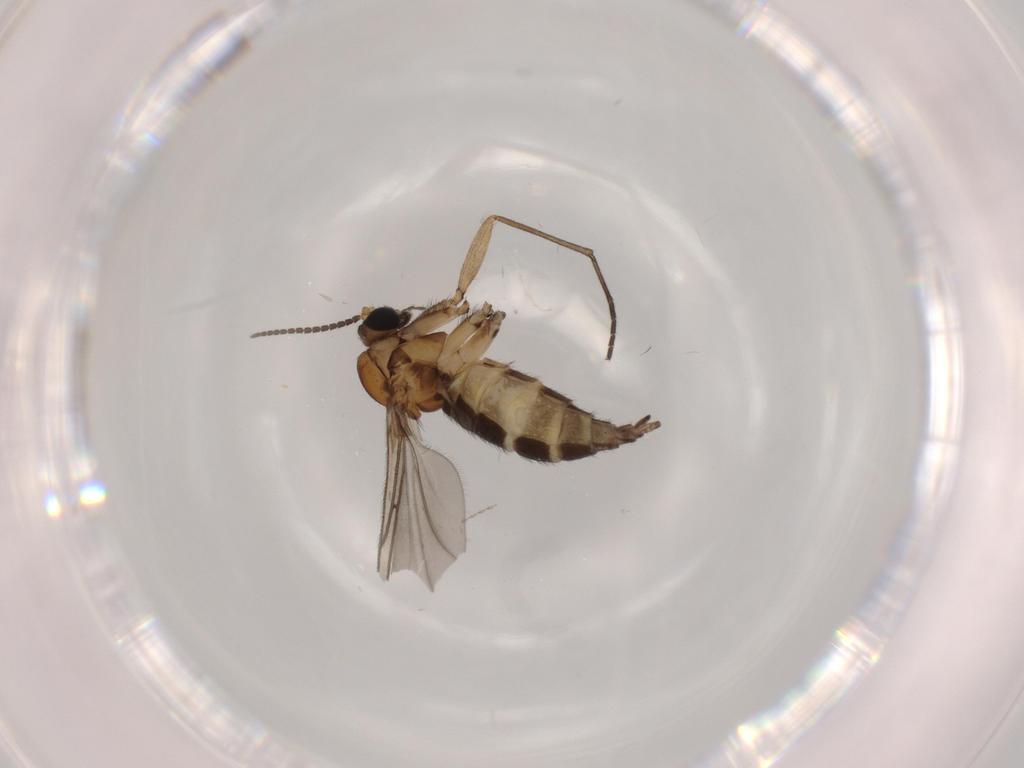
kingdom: Animalia
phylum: Arthropoda
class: Insecta
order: Diptera
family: Sciaridae
